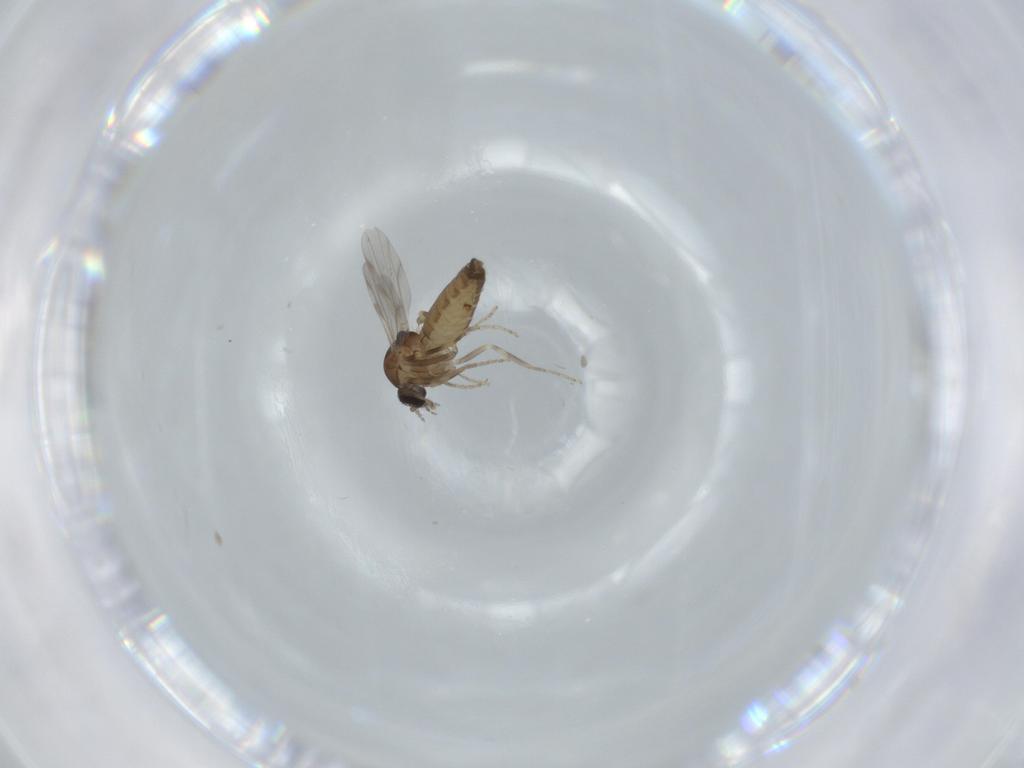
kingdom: Animalia
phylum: Arthropoda
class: Insecta
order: Diptera
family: Ceratopogonidae
